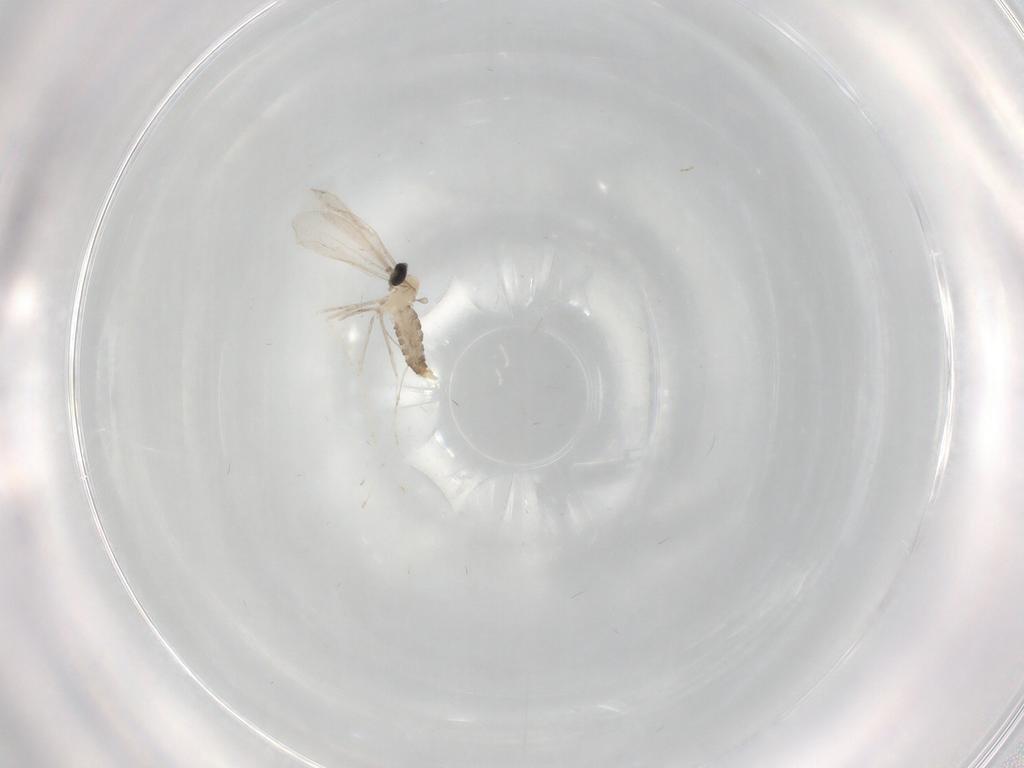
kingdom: Animalia
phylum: Arthropoda
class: Insecta
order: Diptera
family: Cecidomyiidae
